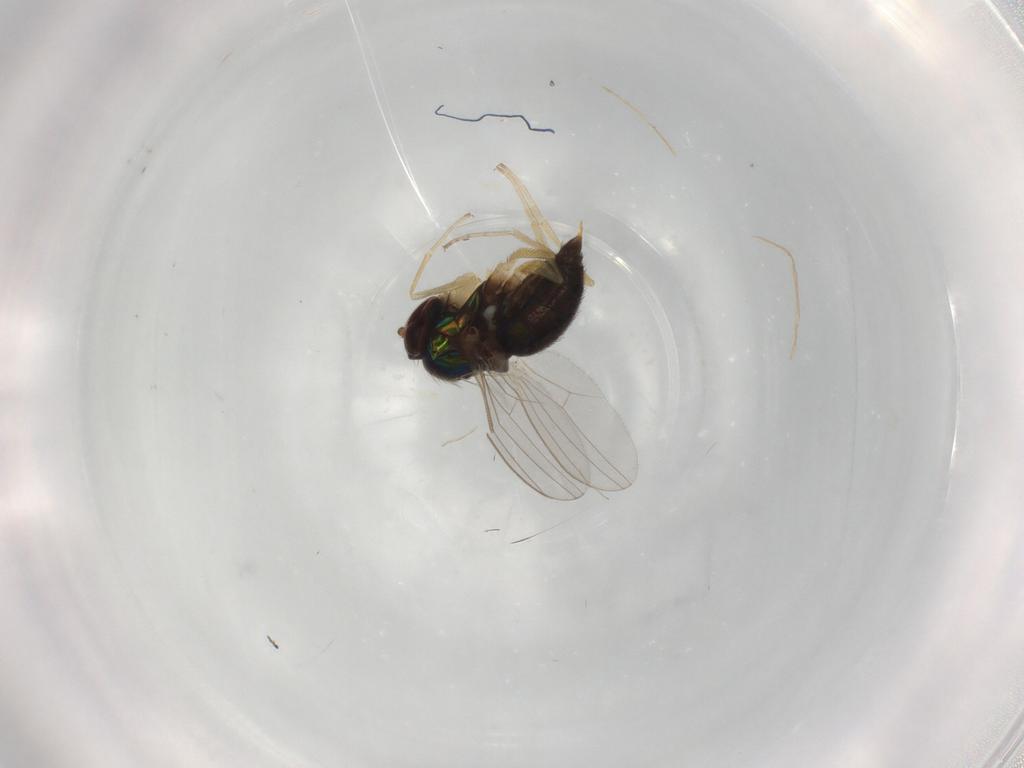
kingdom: Animalia
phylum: Arthropoda
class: Insecta
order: Diptera
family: Dolichopodidae
